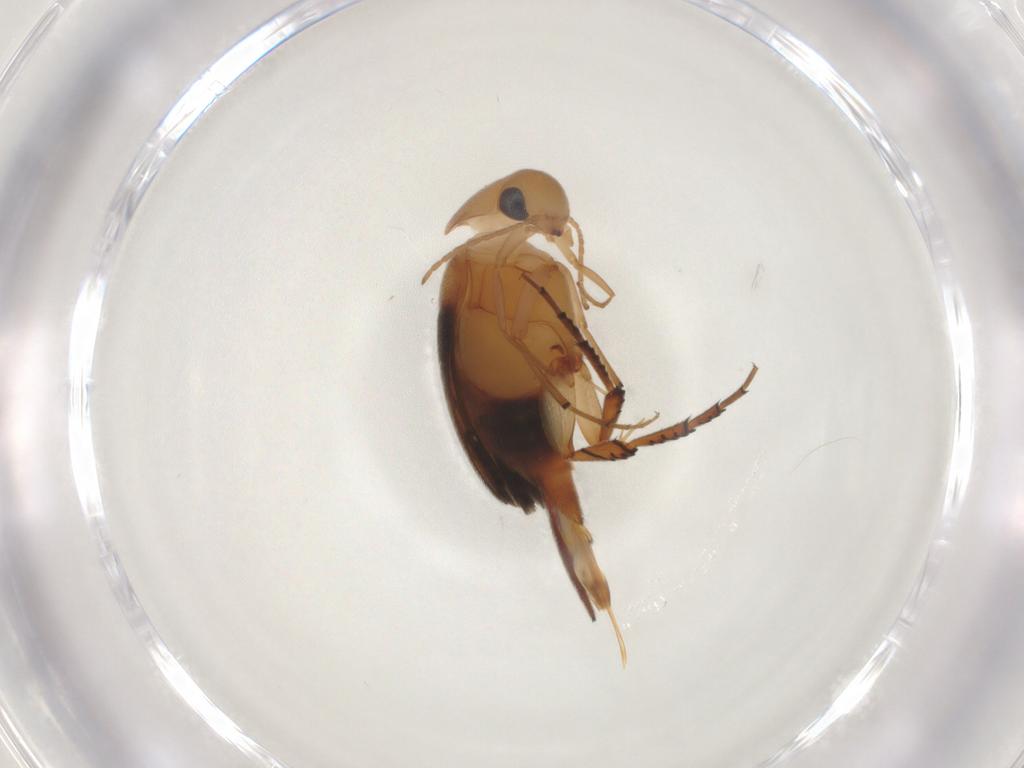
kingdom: Animalia
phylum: Arthropoda
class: Insecta
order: Coleoptera
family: Mordellidae
